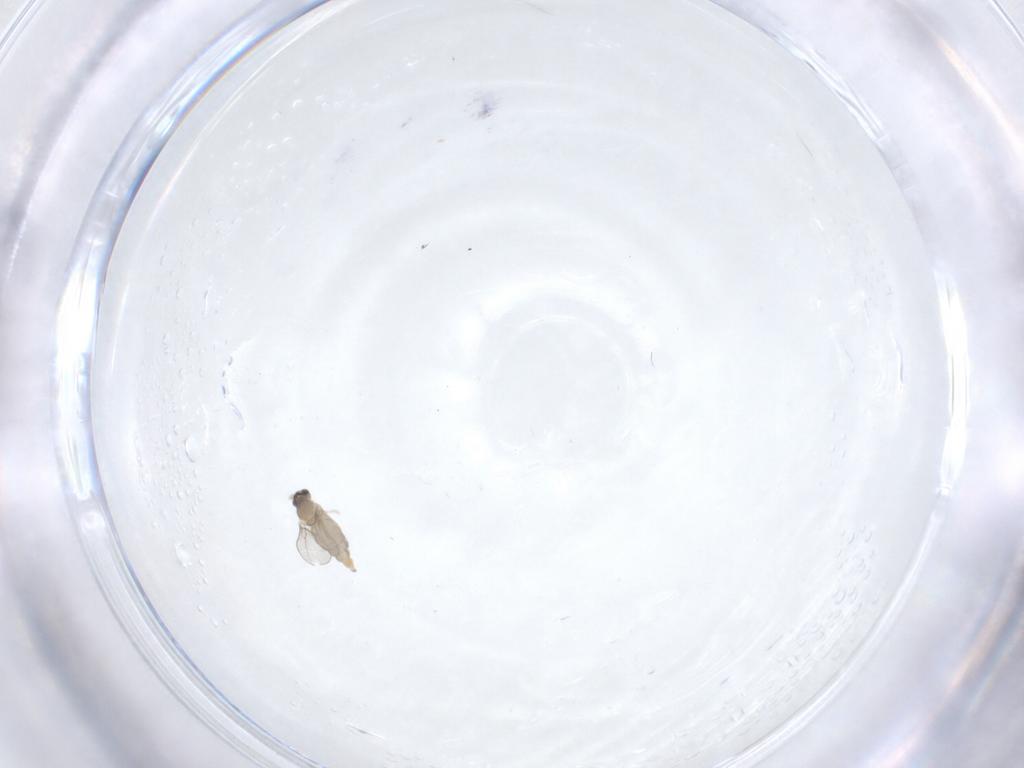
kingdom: Animalia
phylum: Arthropoda
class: Insecta
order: Diptera
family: Cecidomyiidae
